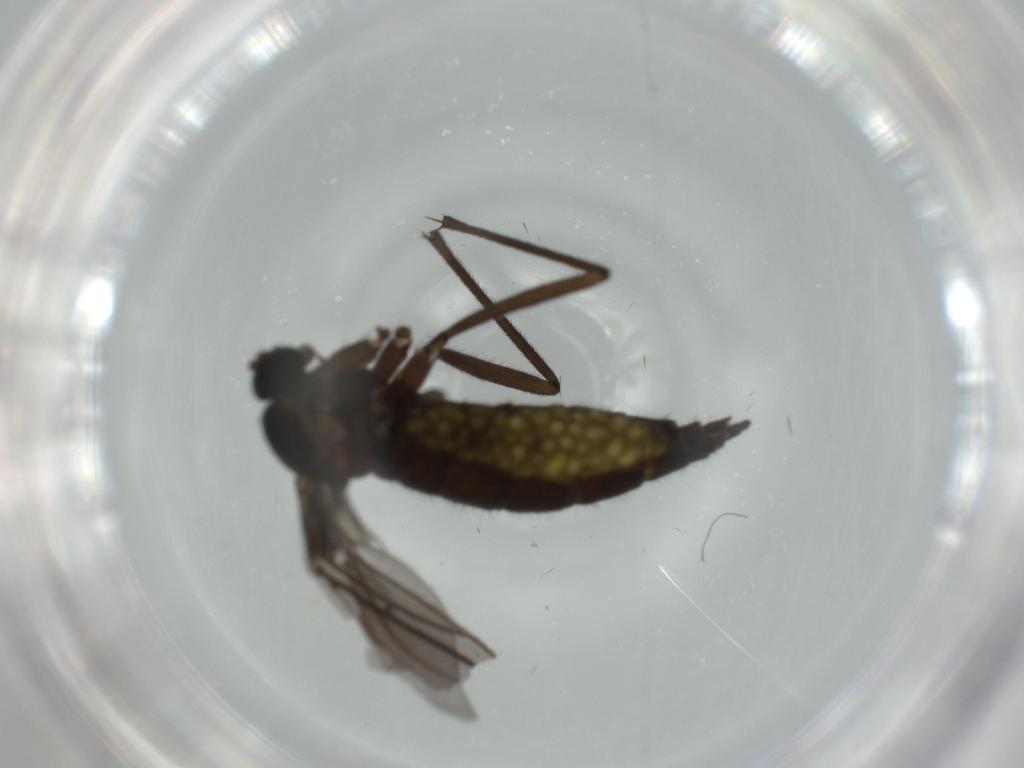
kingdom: Animalia
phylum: Arthropoda
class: Insecta
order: Diptera
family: Sciaridae
